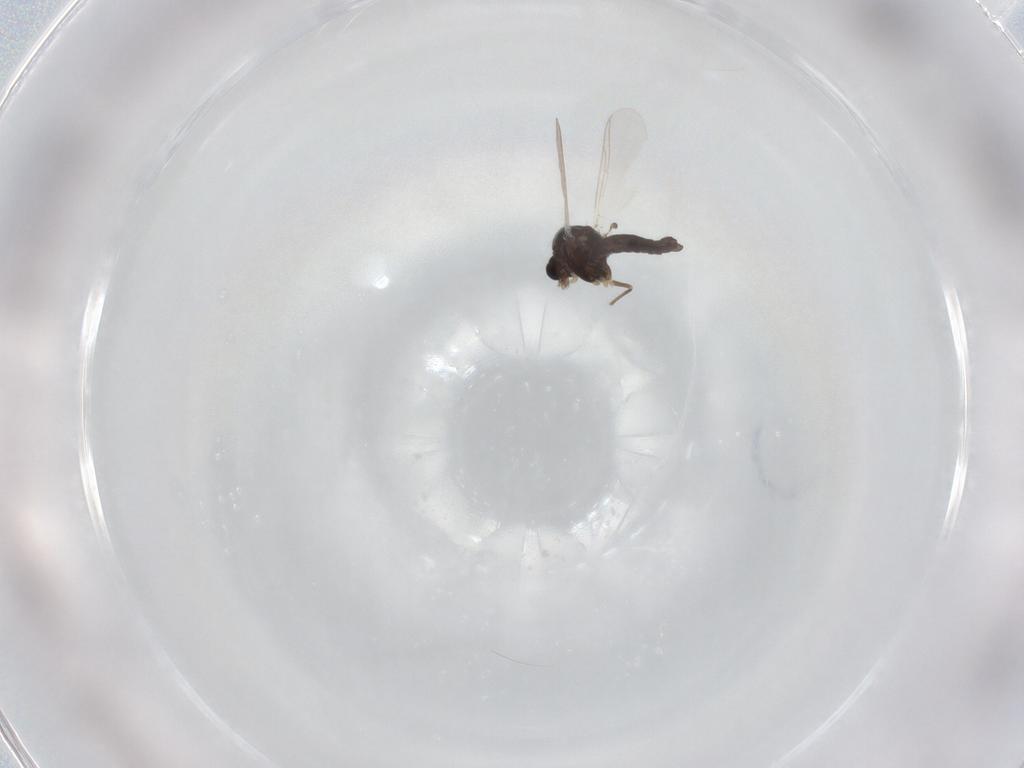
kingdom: Animalia
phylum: Arthropoda
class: Insecta
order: Diptera
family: Chironomidae
